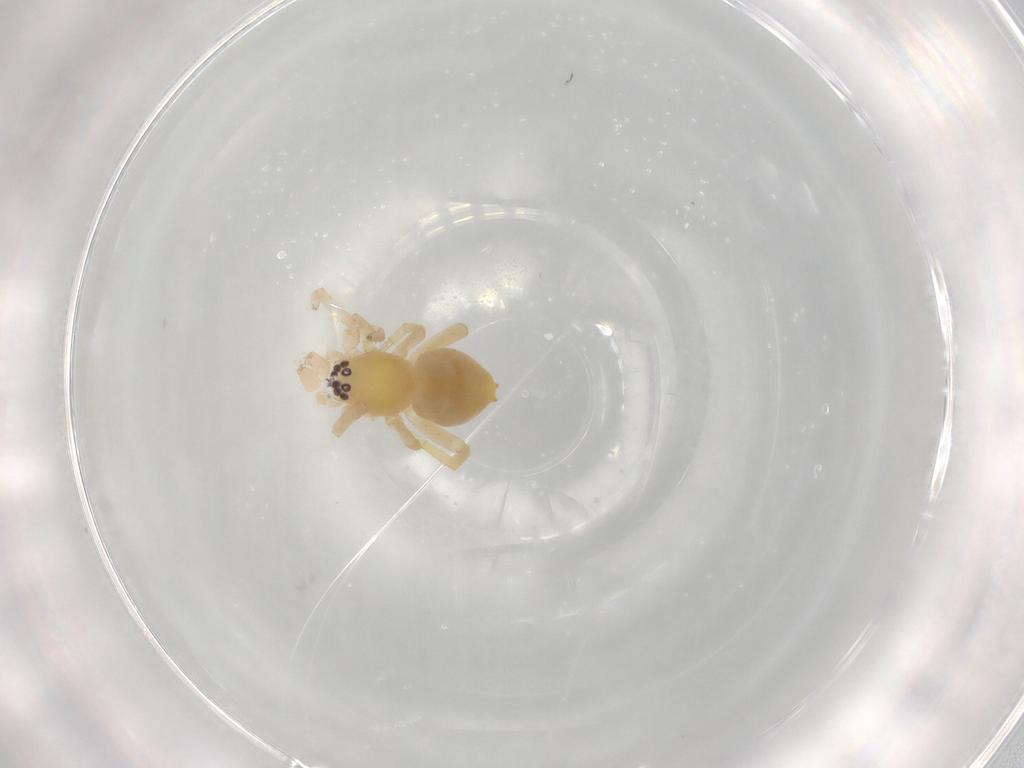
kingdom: Animalia
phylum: Arthropoda
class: Arachnida
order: Araneae
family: Clubionidae
